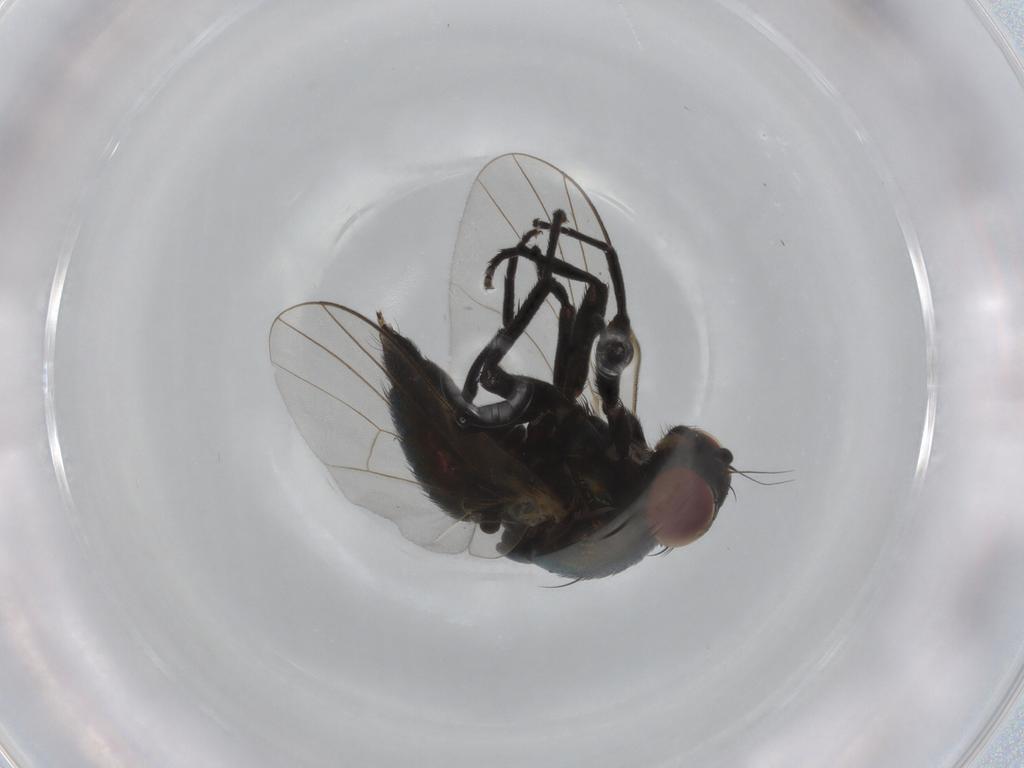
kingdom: Animalia
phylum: Arthropoda
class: Insecta
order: Diptera
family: Agromyzidae
